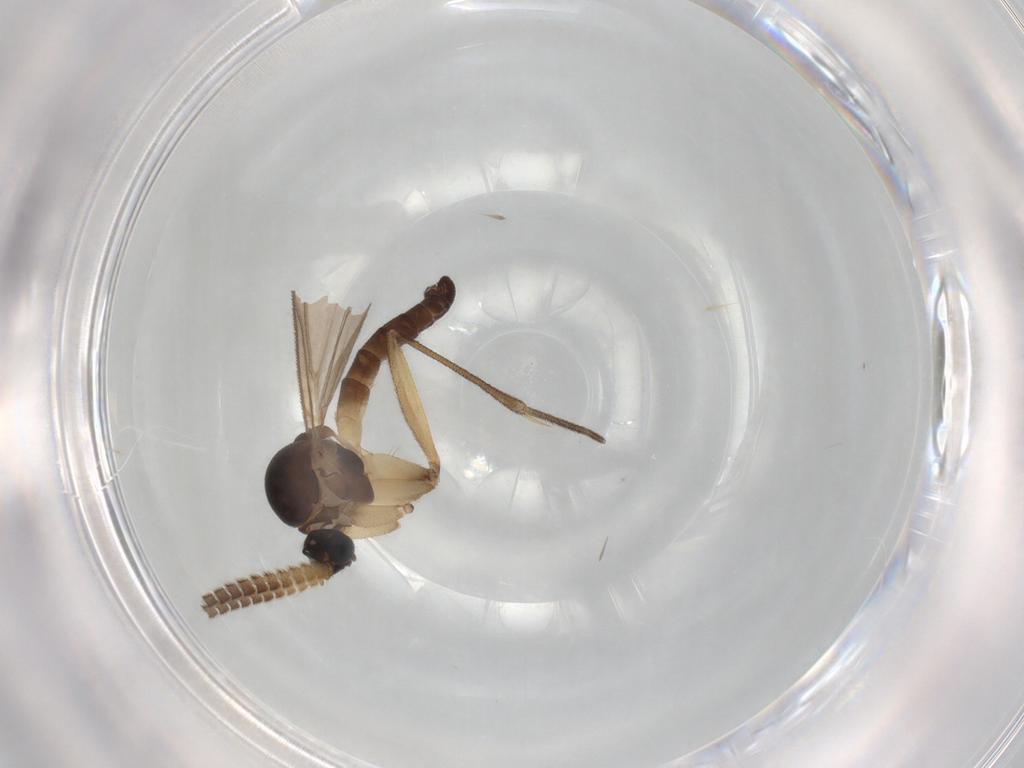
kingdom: Animalia
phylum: Arthropoda
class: Insecta
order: Diptera
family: Mycetophilidae
